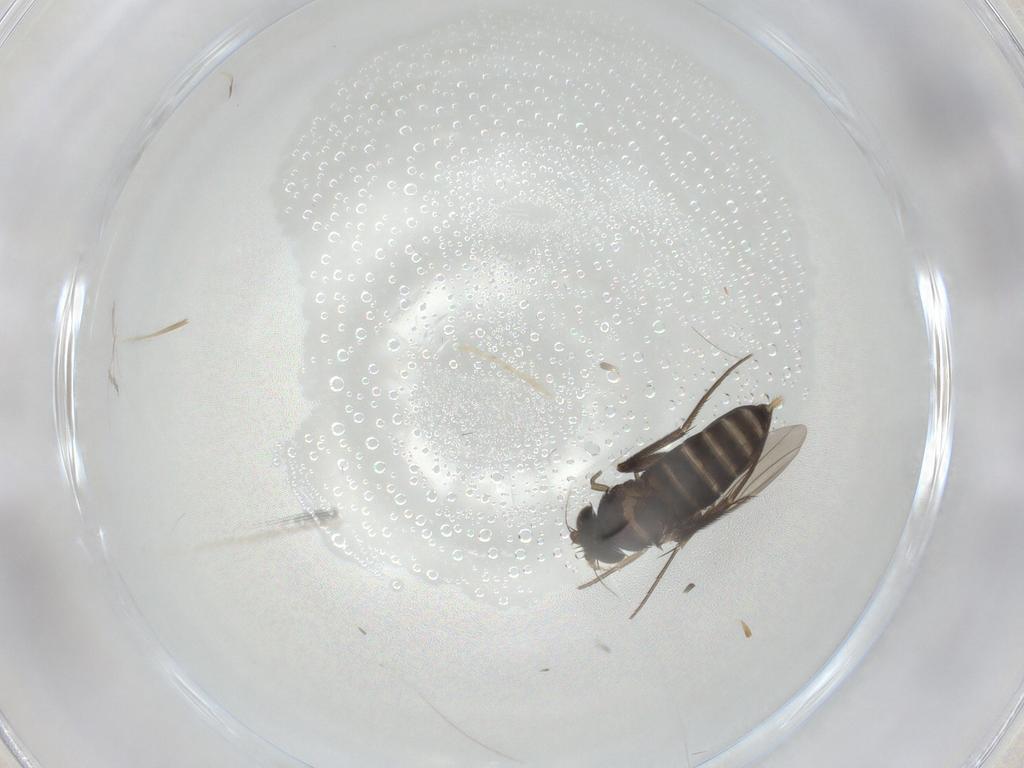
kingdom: Animalia
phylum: Arthropoda
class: Insecta
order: Diptera
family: Phoridae
